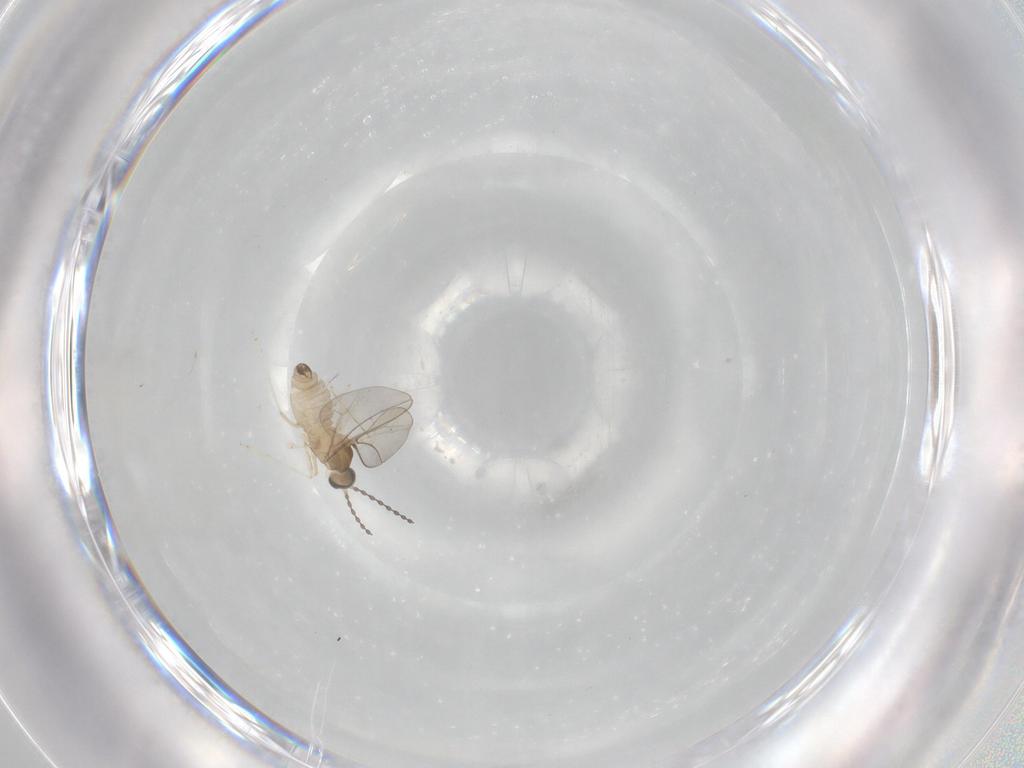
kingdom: Animalia
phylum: Arthropoda
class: Insecta
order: Diptera
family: Cecidomyiidae
